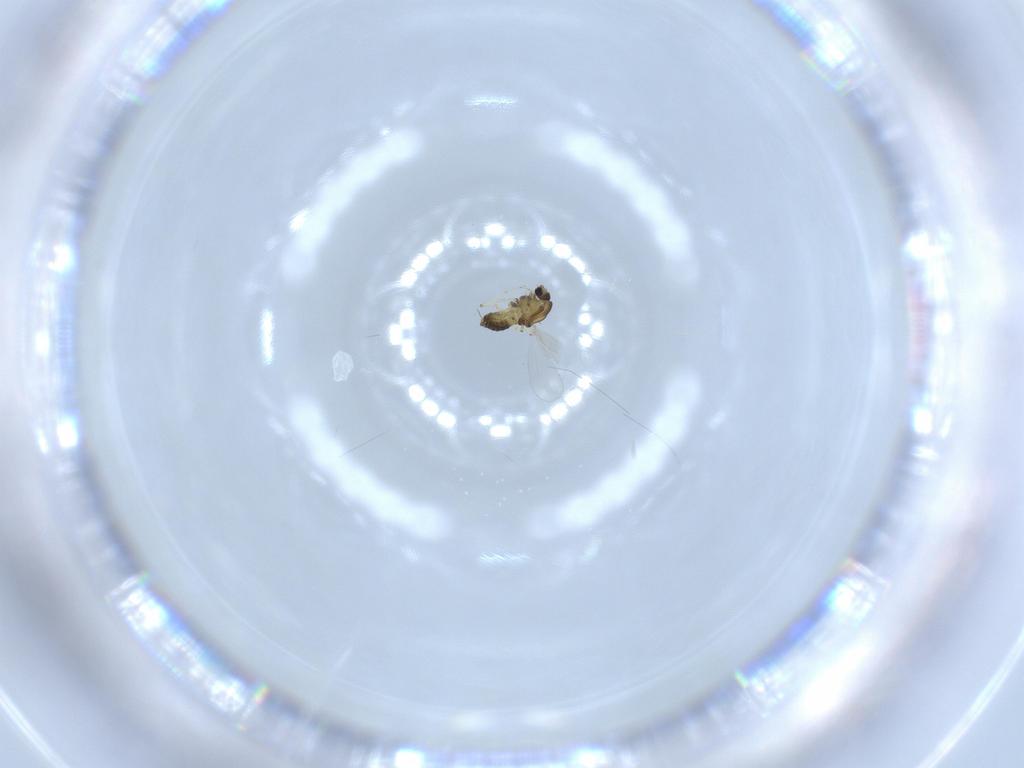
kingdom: Animalia
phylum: Arthropoda
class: Insecta
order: Diptera
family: Chironomidae
